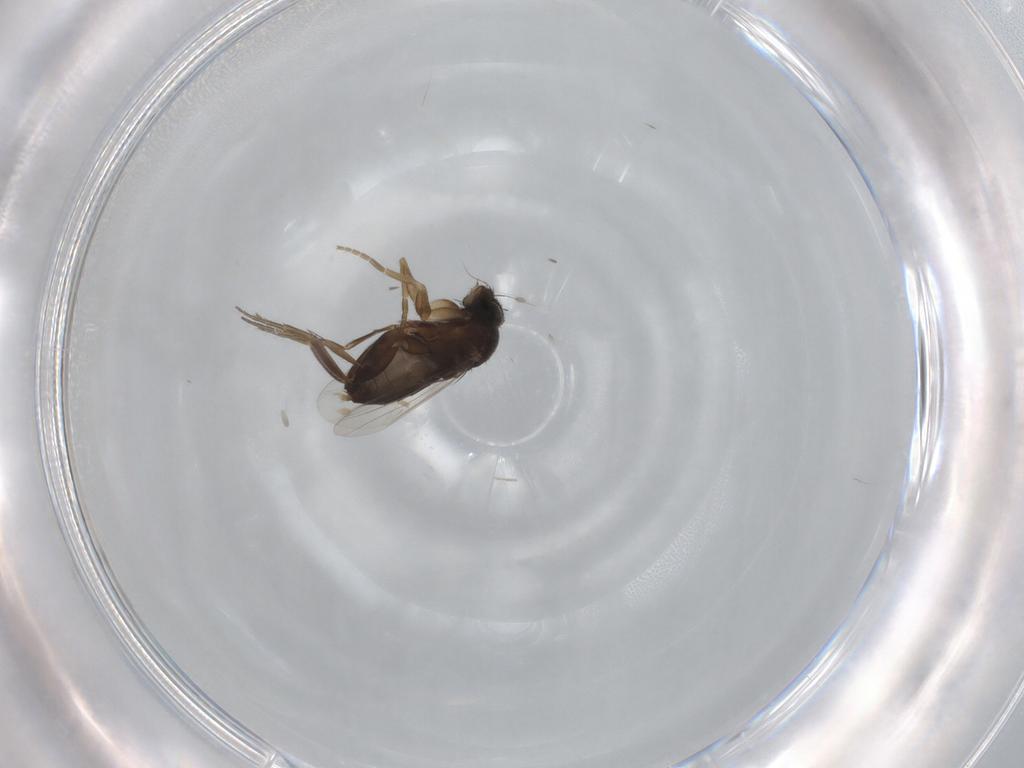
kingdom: Animalia
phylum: Arthropoda
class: Insecta
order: Diptera
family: Phoridae
